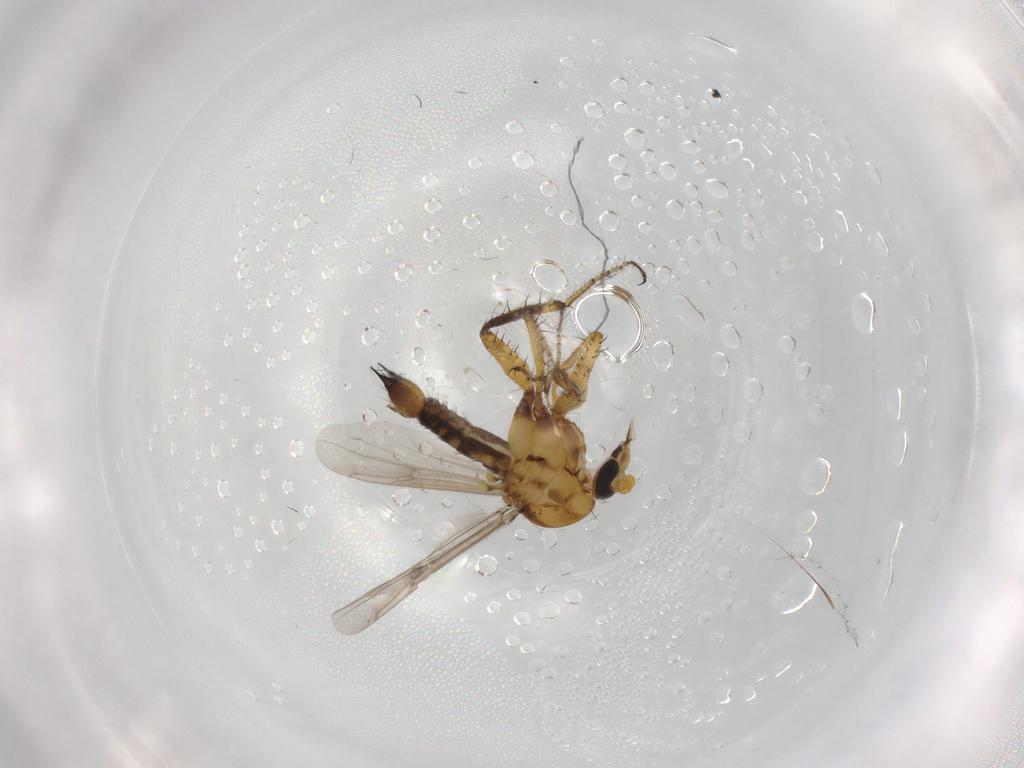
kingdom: Animalia
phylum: Arthropoda
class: Insecta
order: Diptera
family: Ceratopogonidae
